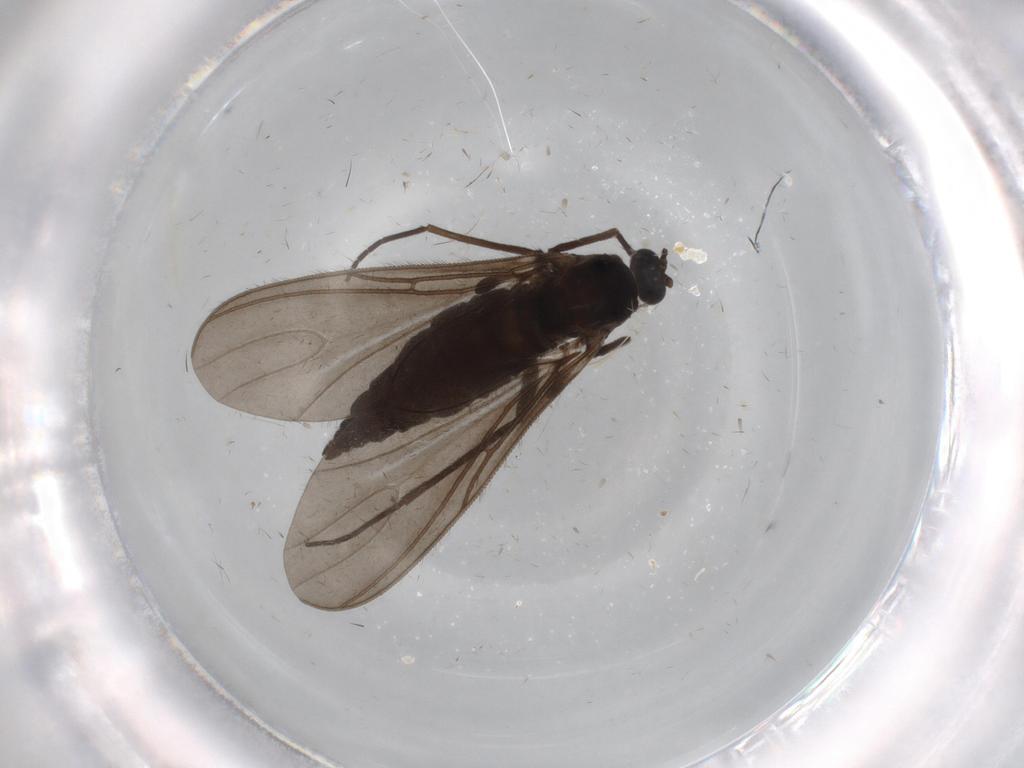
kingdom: Animalia
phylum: Arthropoda
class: Insecta
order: Diptera
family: Sciaridae
